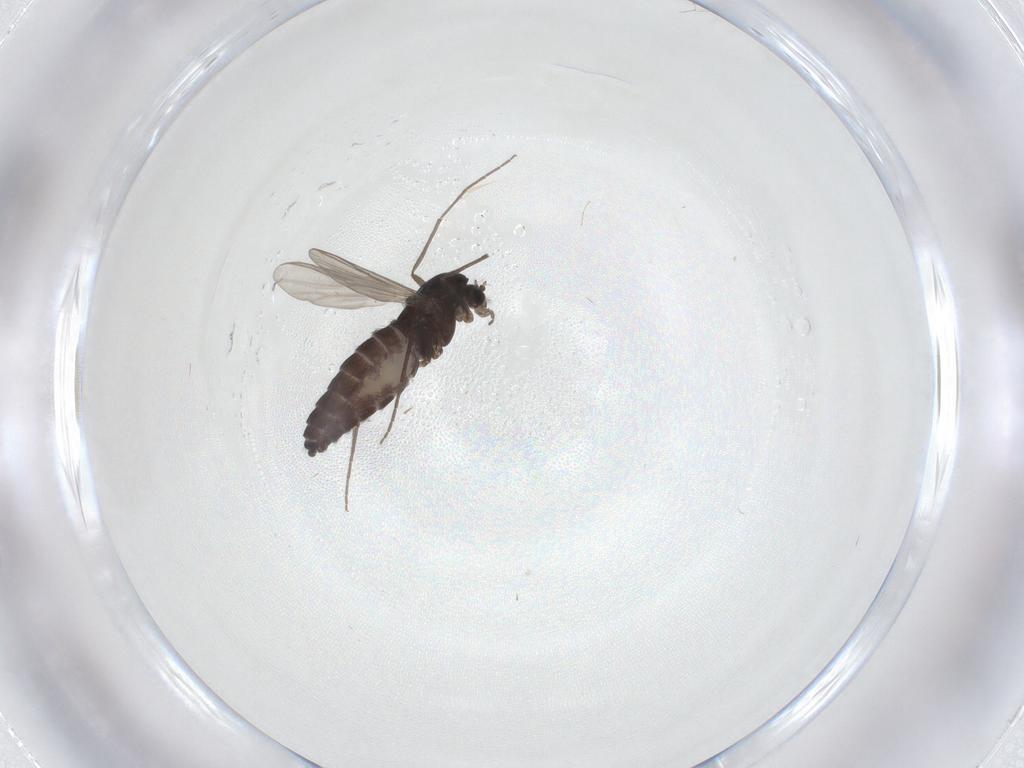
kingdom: Animalia
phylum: Arthropoda
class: Insecta
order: Diptera
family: Chironomidae
